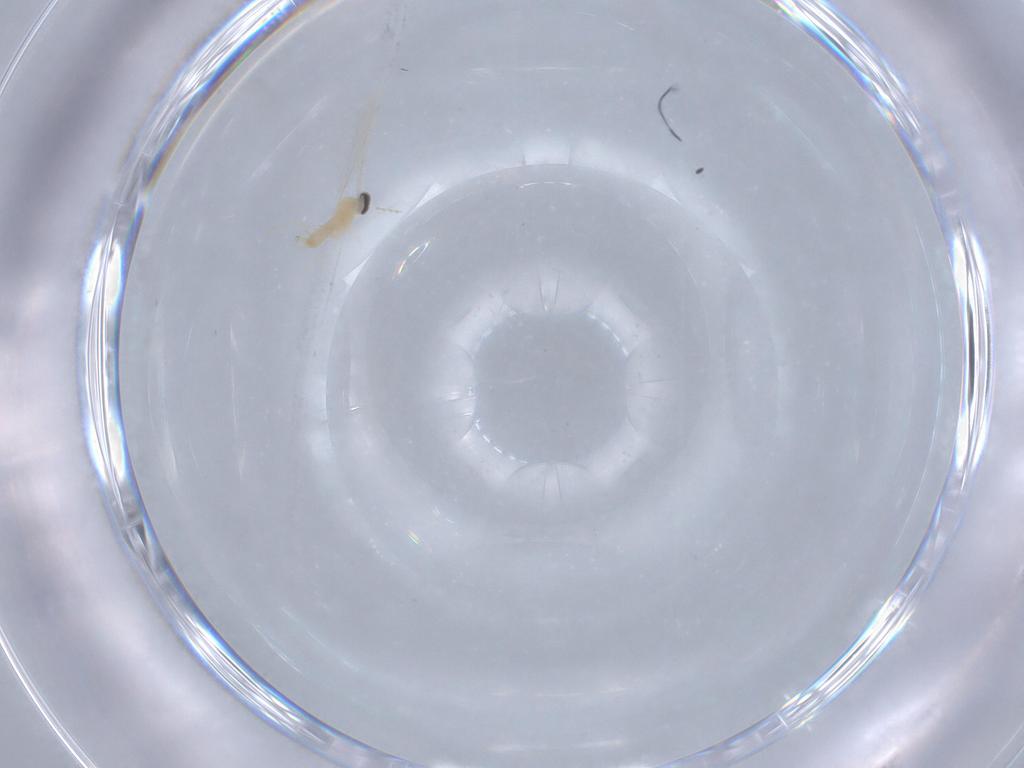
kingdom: Animalia
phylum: Arthropoda
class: Insecta
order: Diptera
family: Cecidomyiidae
